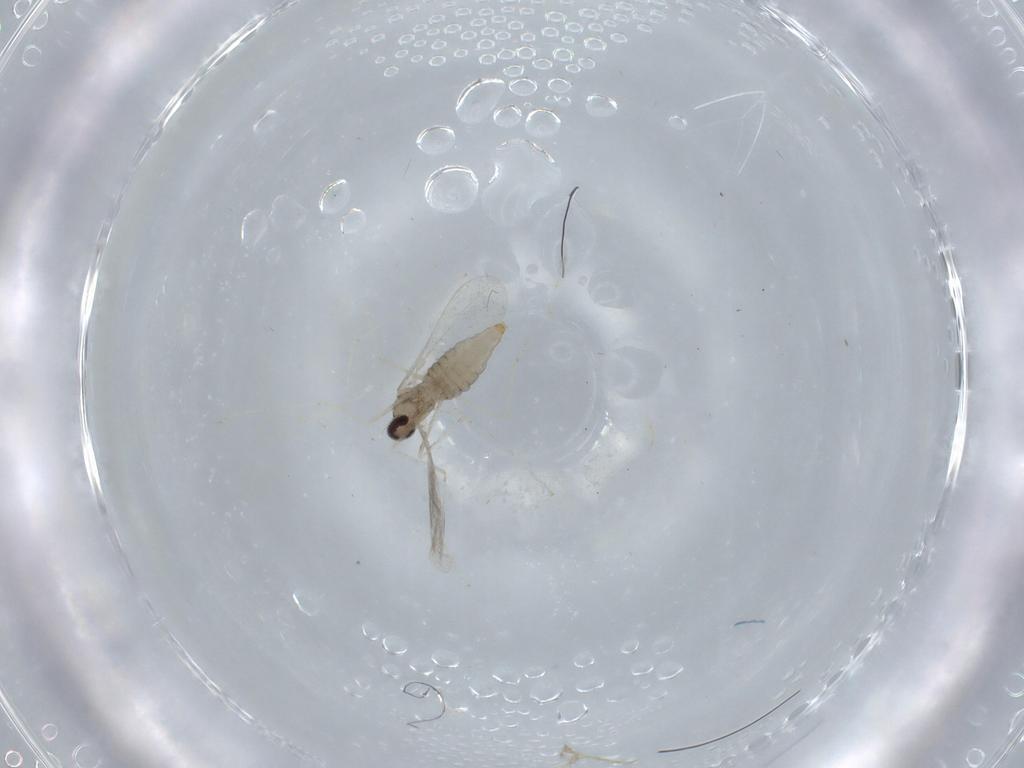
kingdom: Animalia
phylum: Arthropoda
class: Insecta
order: Diptera
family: Cecidomyiidae
